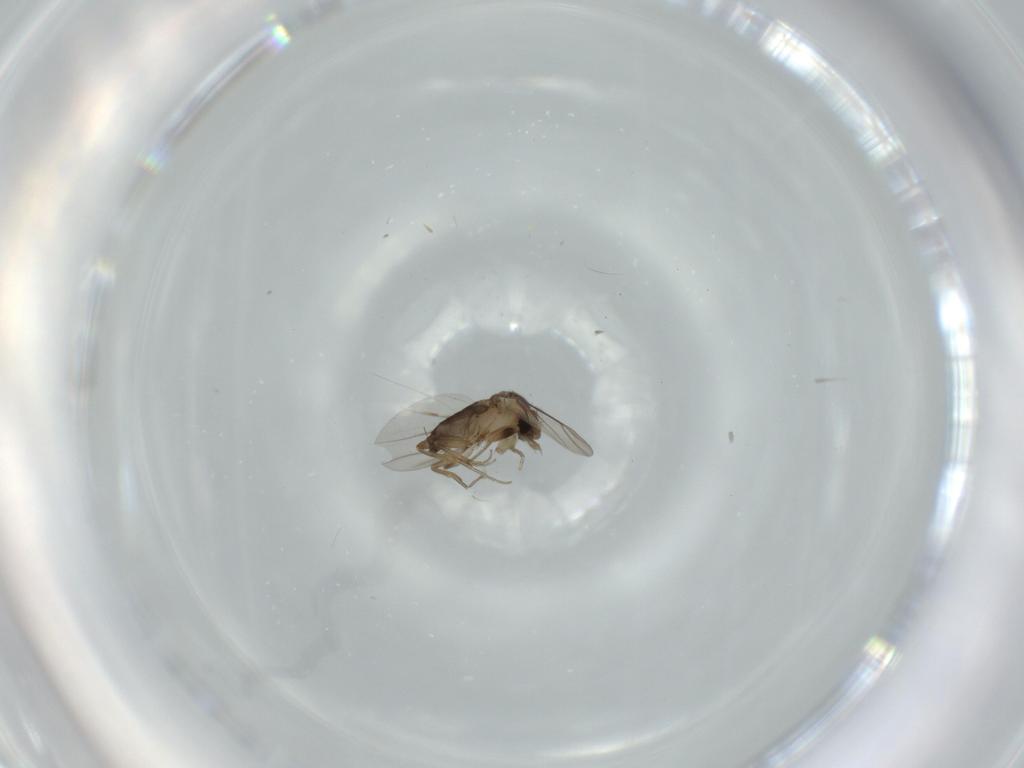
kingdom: Animalia
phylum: Arthropoda
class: Insecta
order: Diptera
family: Phoridae
